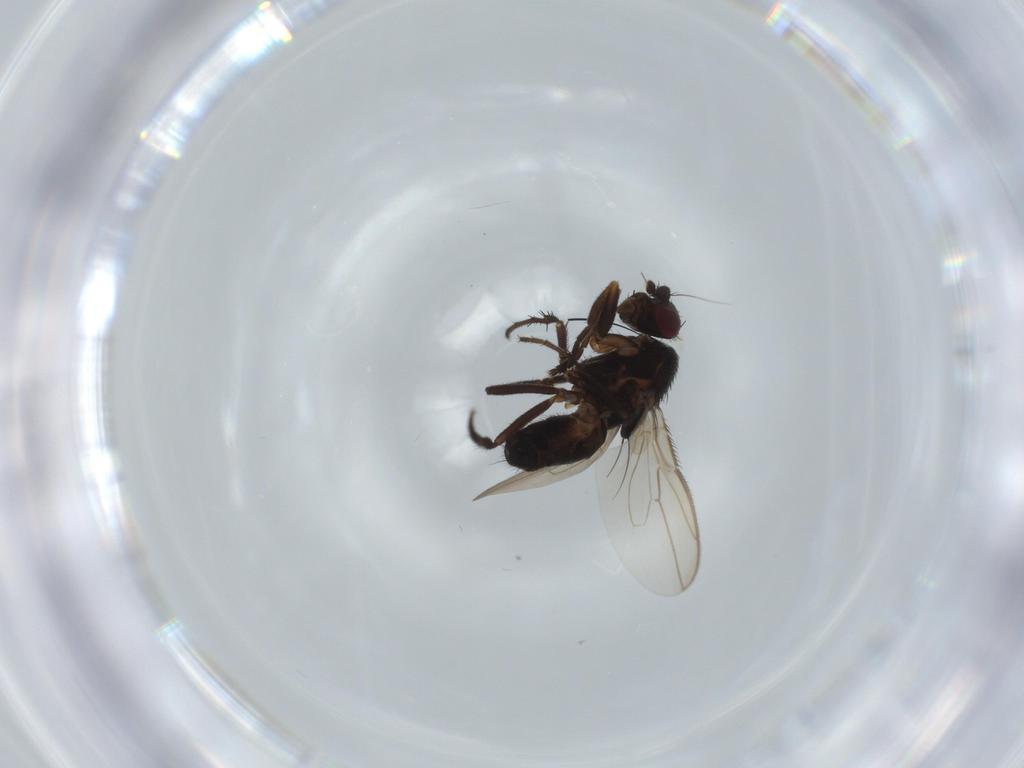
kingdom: Animalia
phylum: Arthropoda
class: Insecta
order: Diptera
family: Sphaeroceridae
